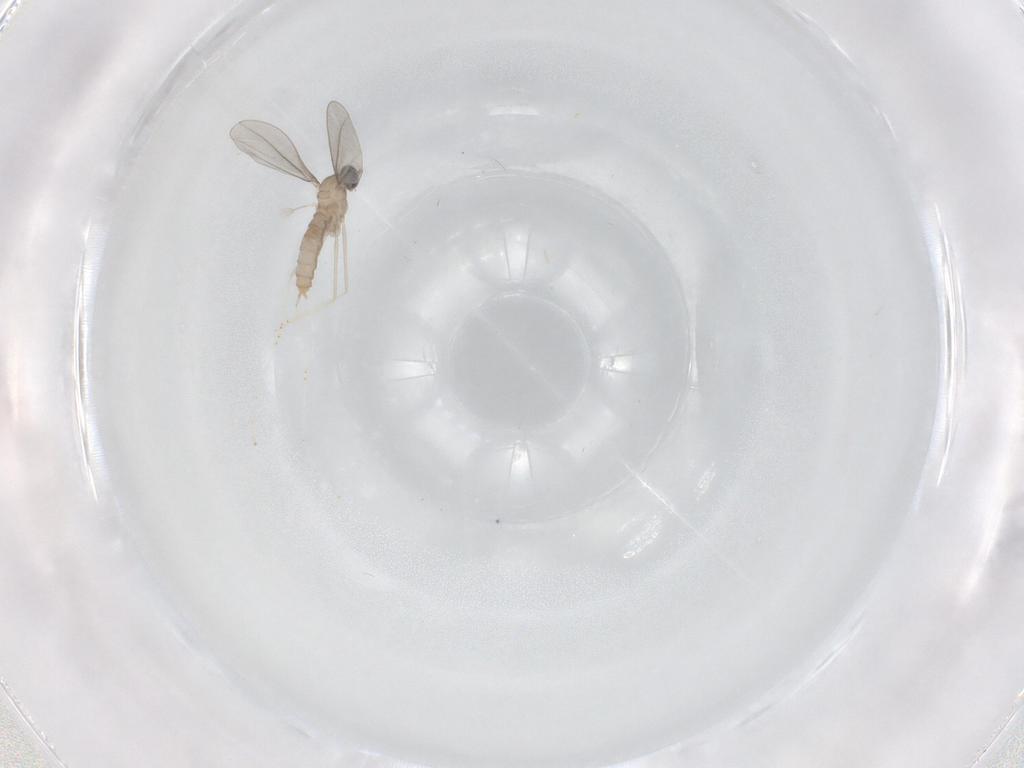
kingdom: Animalia
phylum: Arthropoda
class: Insecta
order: Diptera
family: Cecidomyiidae
